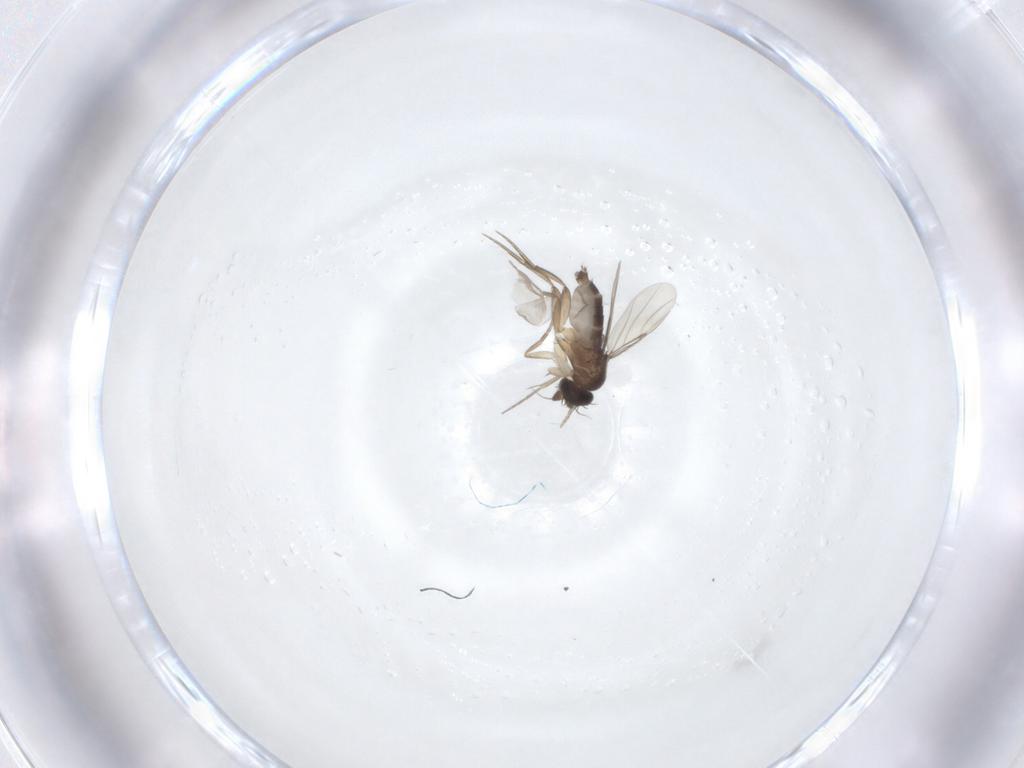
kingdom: Animalia
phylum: Arthropoda
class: Insecta
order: Diptera
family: Phoridae
